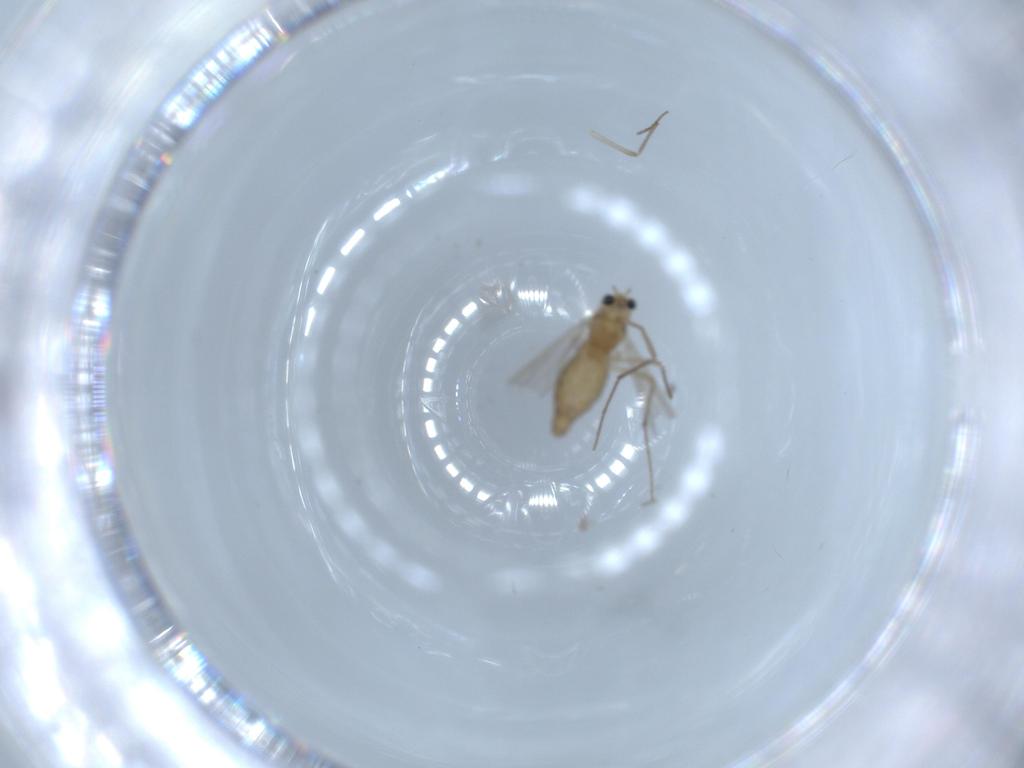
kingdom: Animalia
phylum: Arthropoda
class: Insecta
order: Diptera
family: Chironomidae
